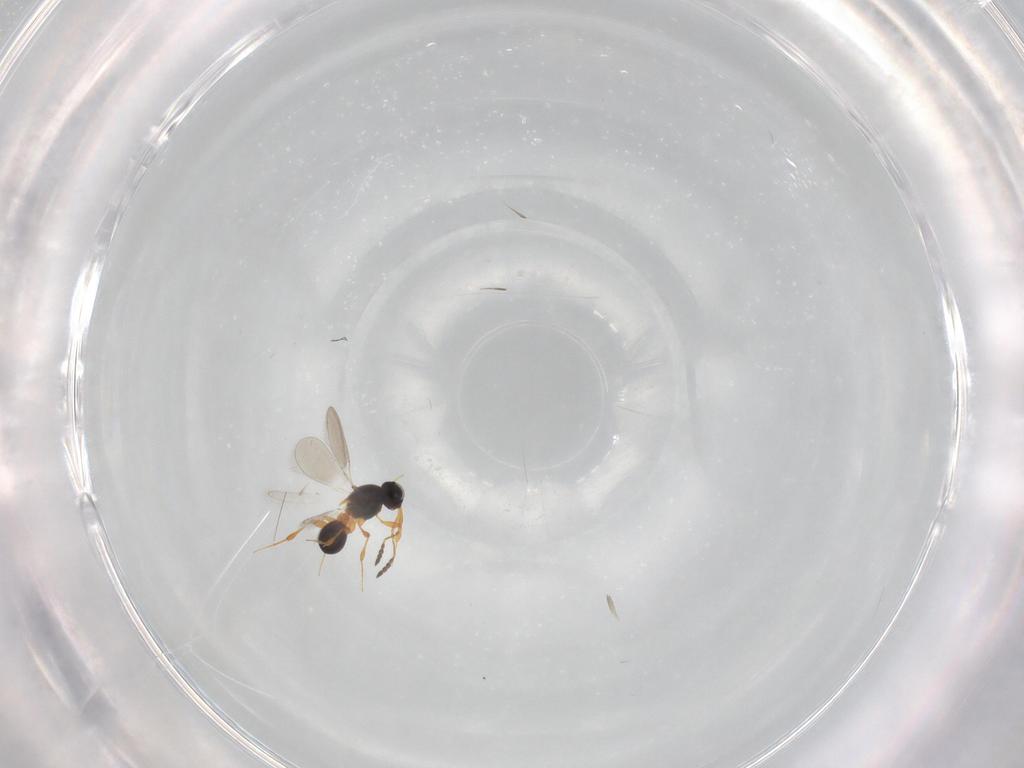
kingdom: Animalia
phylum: Arthropoda
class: Insecta
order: Hymenoptera
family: Platygastridae
